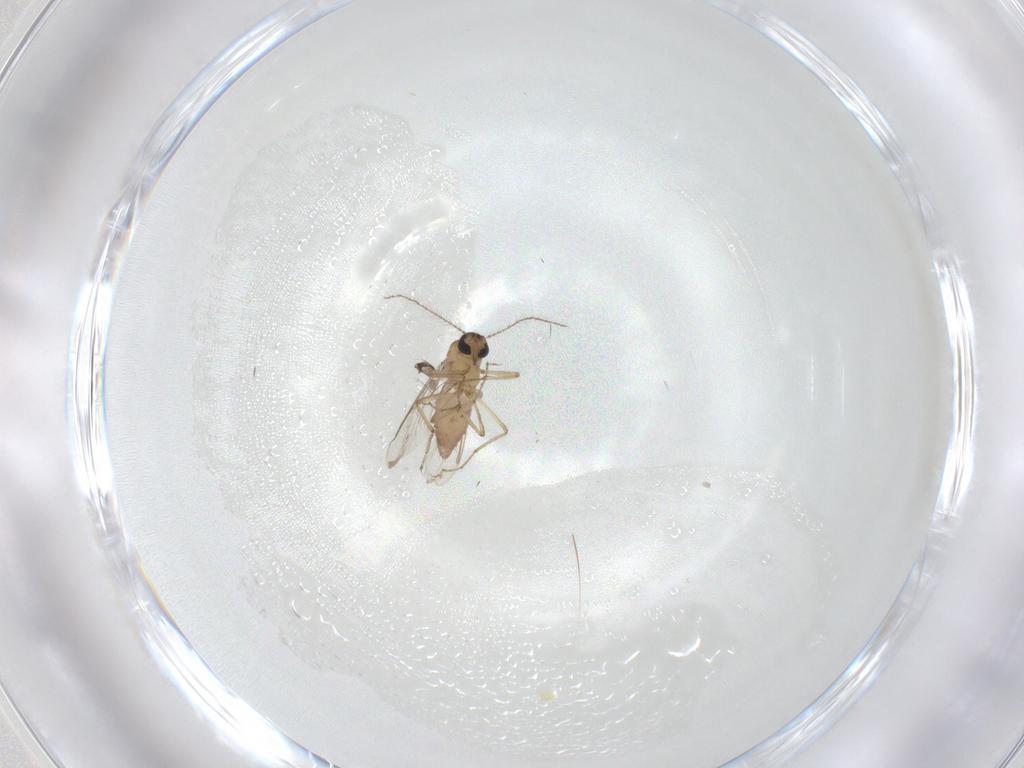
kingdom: Animalia
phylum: Arthropoda
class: Insecta
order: Diptera
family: Ceratopogonidae
